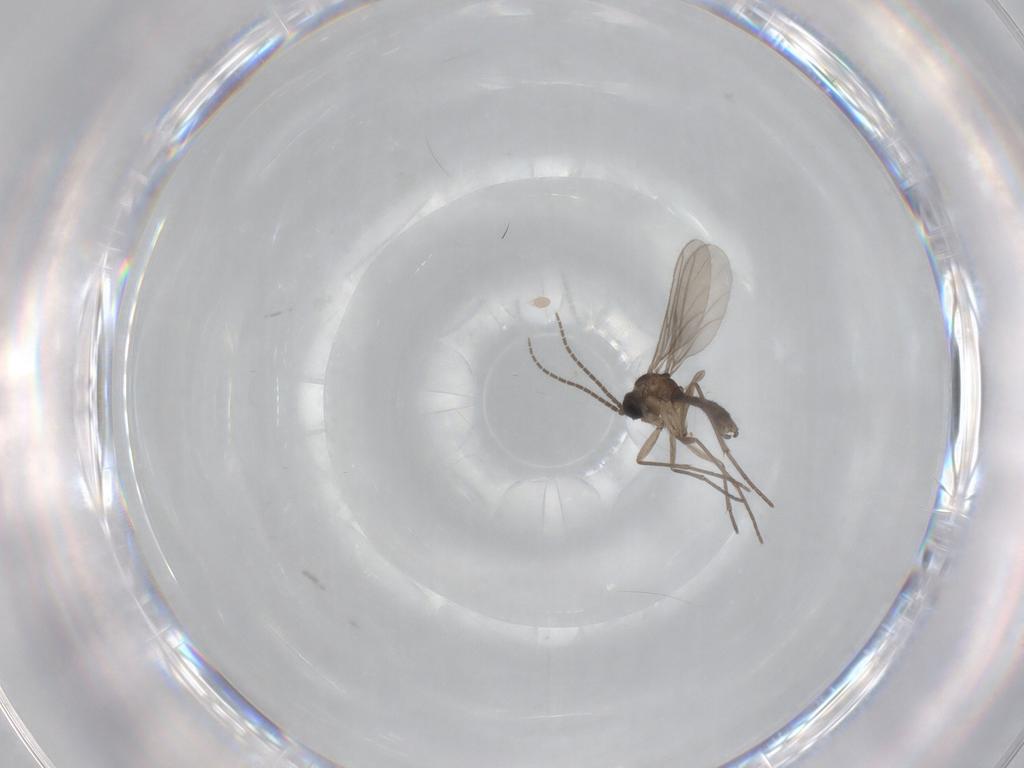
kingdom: Animalia
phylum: Arthropoda
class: Insecta
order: Diptera
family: Sciaridae
